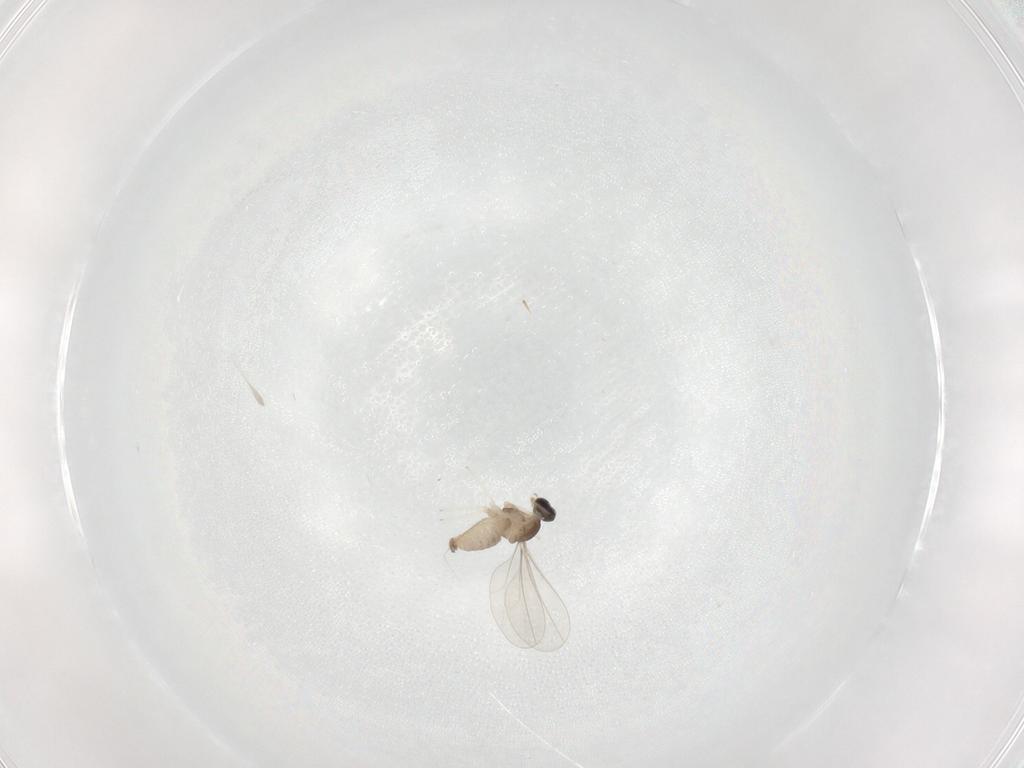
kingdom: Animalia
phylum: Arthropoda
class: Insecta
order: Diptera
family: Cecidomyiidae
